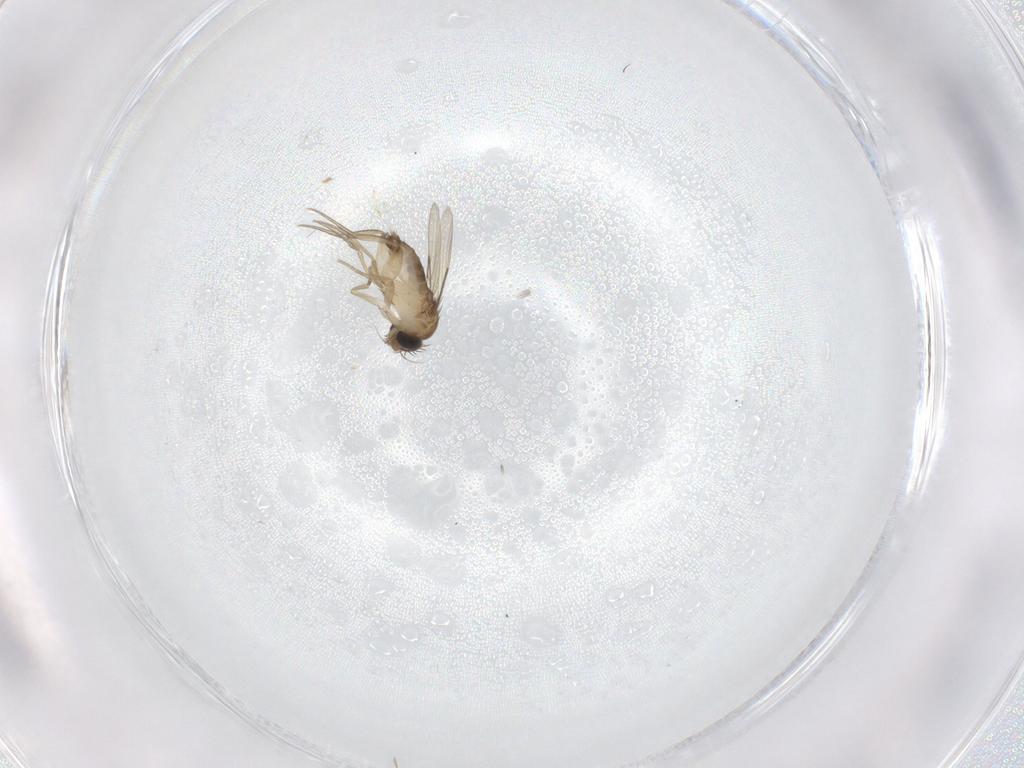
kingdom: Animalia
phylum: Arthropoda
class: Insecta
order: Diptera
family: Phoridae
